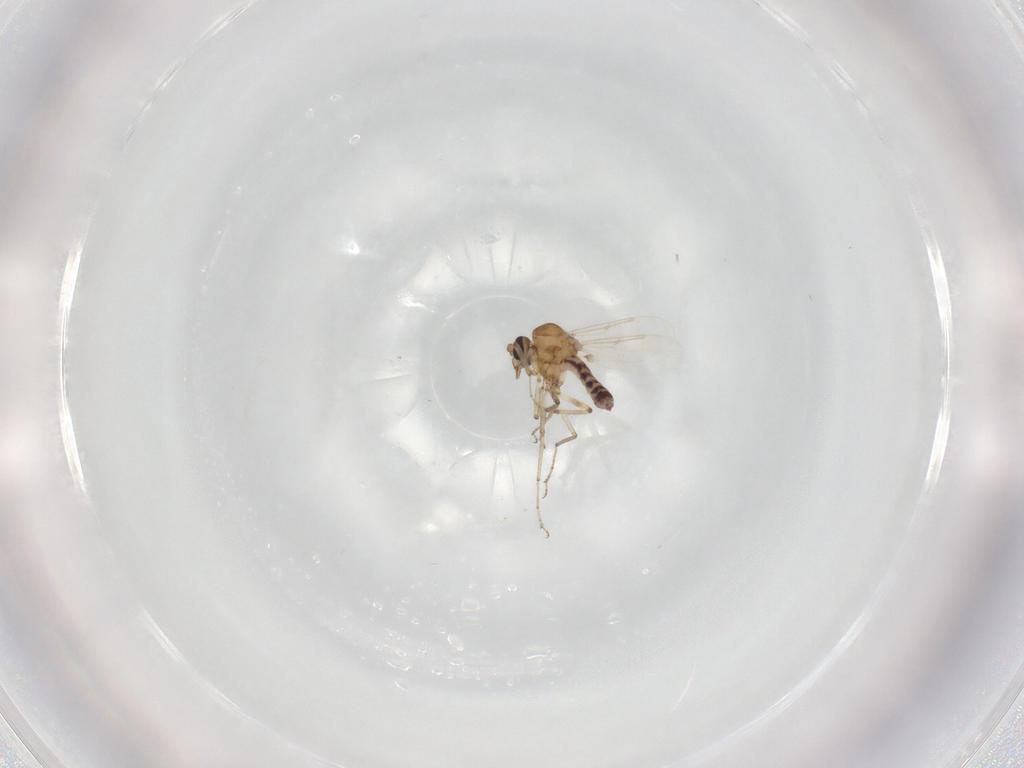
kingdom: Animalia
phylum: Arthropoda
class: Insecta
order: Diptera
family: Ceratopogonidae
